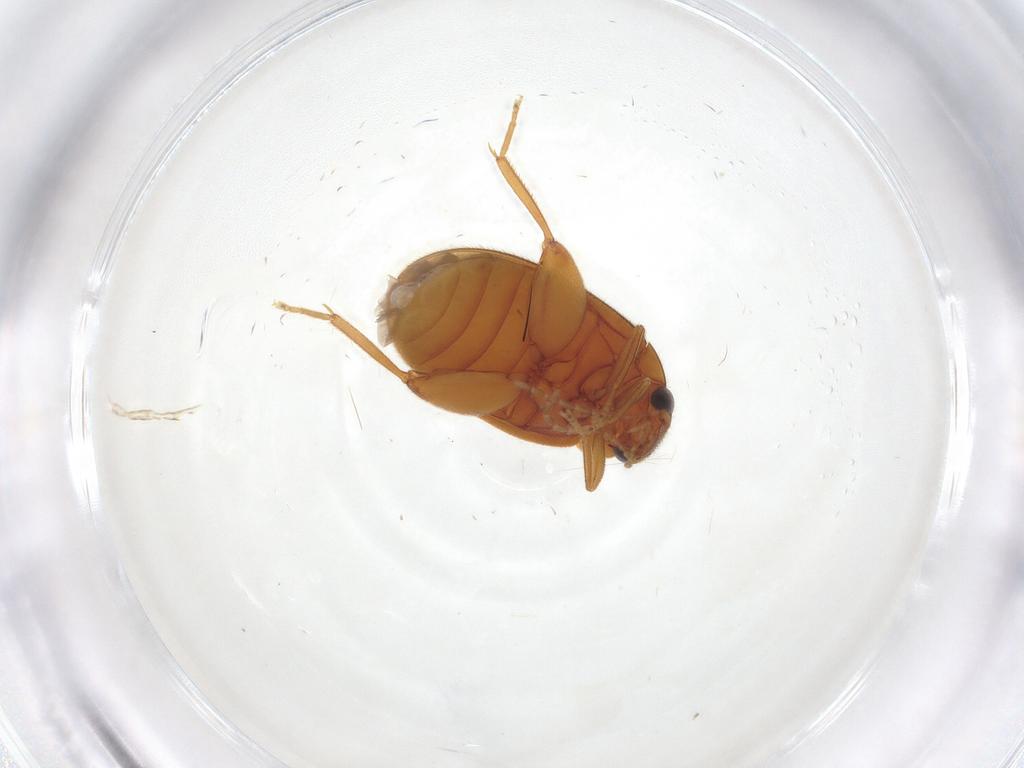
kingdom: Animalia
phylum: Arthropoda
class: Insecta
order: Coleoptera
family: Scirtidae
